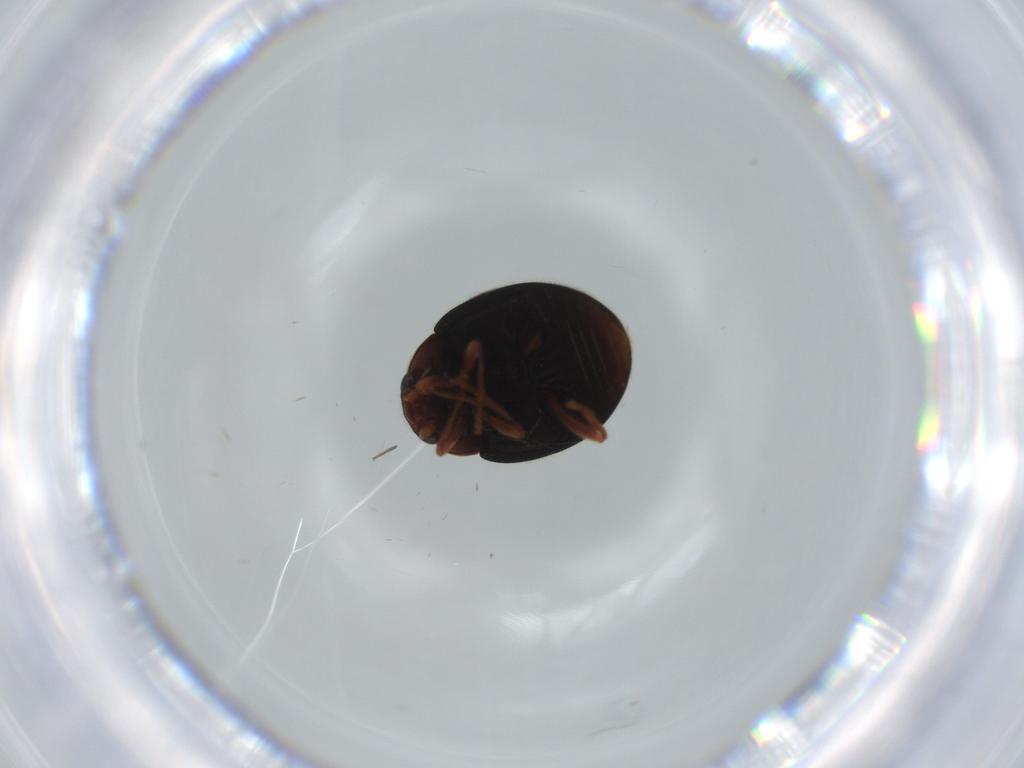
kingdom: Animalia
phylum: Arthropoda
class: Insecta
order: Coleoptera
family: Coccinellidae
